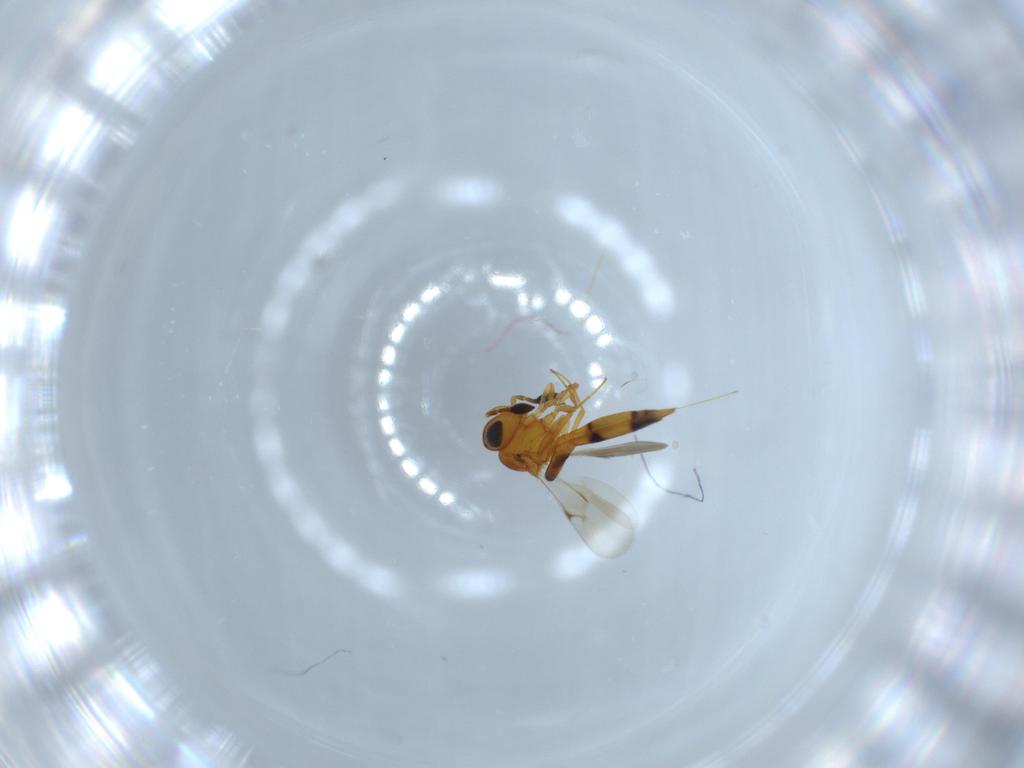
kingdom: Animalia
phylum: Arthropoda
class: Insecta
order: Hymenoptera
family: Scelionidae
